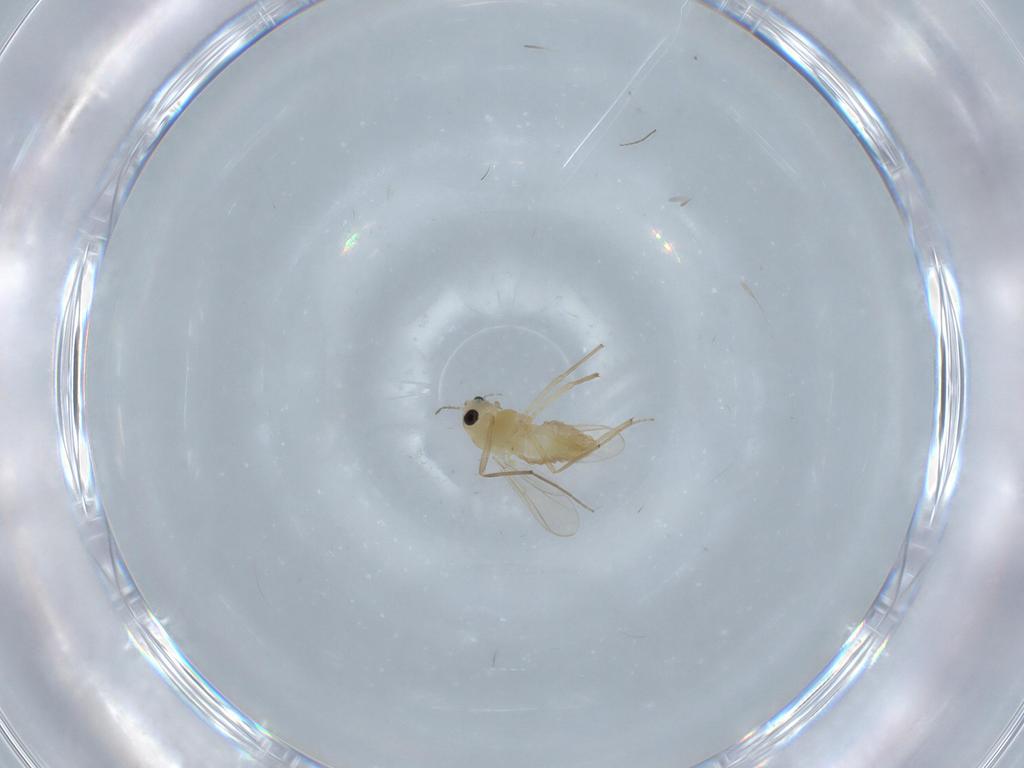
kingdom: Animalia
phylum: Arthropoda
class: Insecta
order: Diptera
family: Chironomidae
